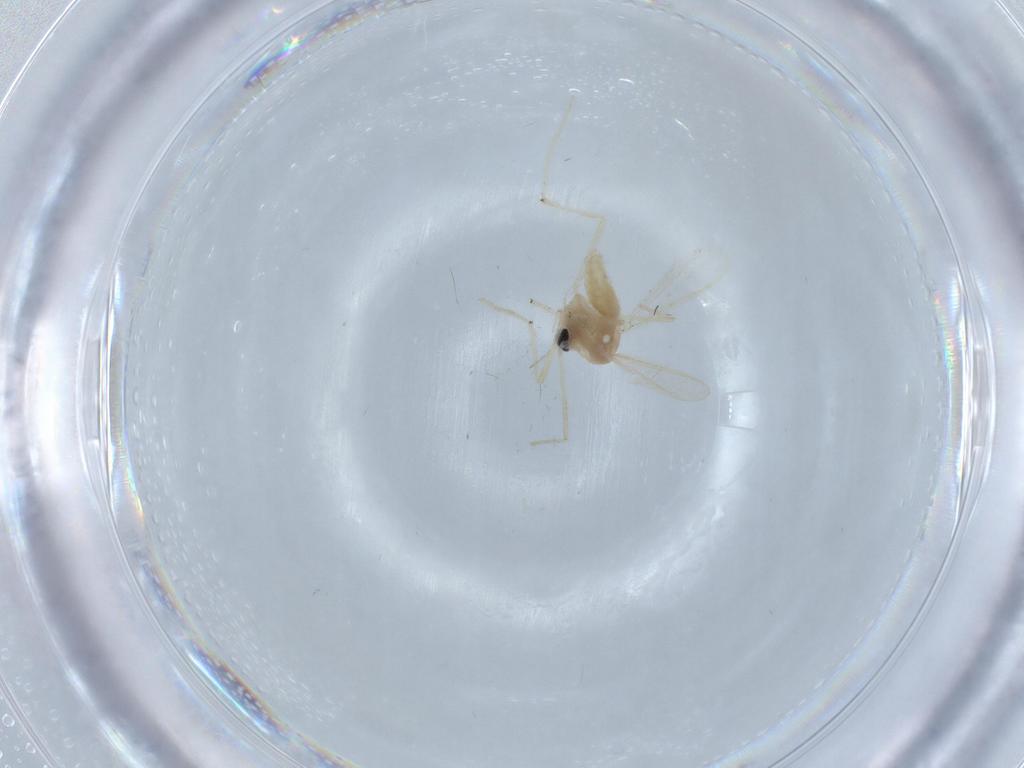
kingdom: Animalia
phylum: Arthropoda
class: Insecta
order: Diptera
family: Chironomidae
